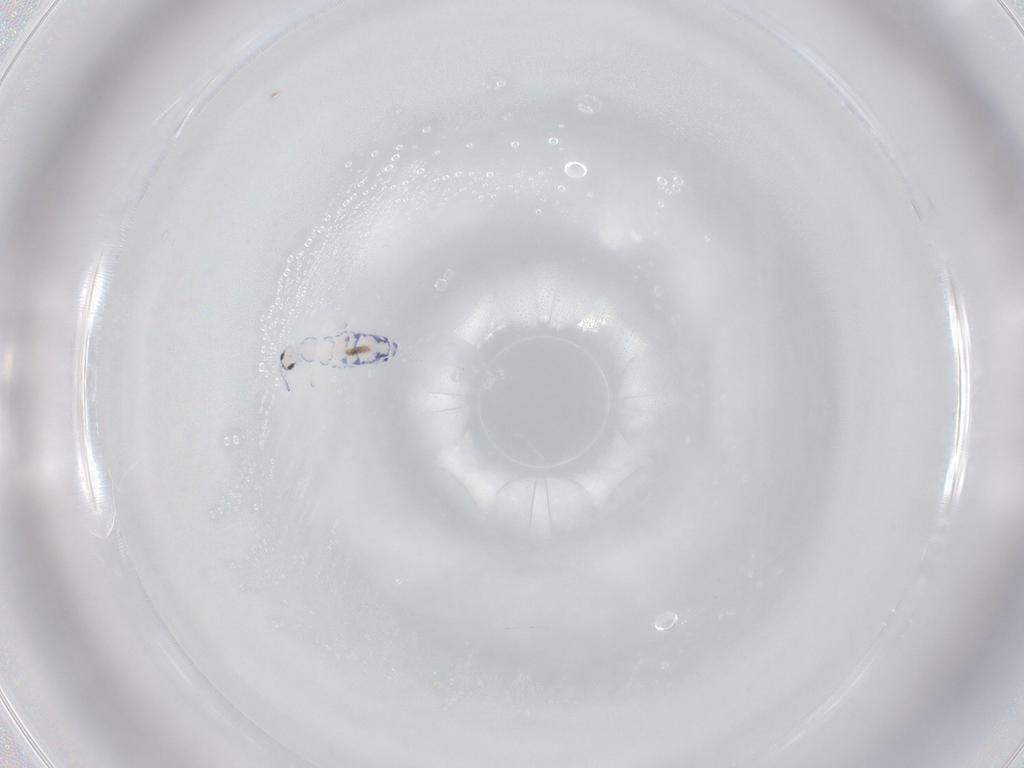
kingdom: Animalia
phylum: Arthropoda
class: Collembola
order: Entomobryomorpha
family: Entomobryidae
